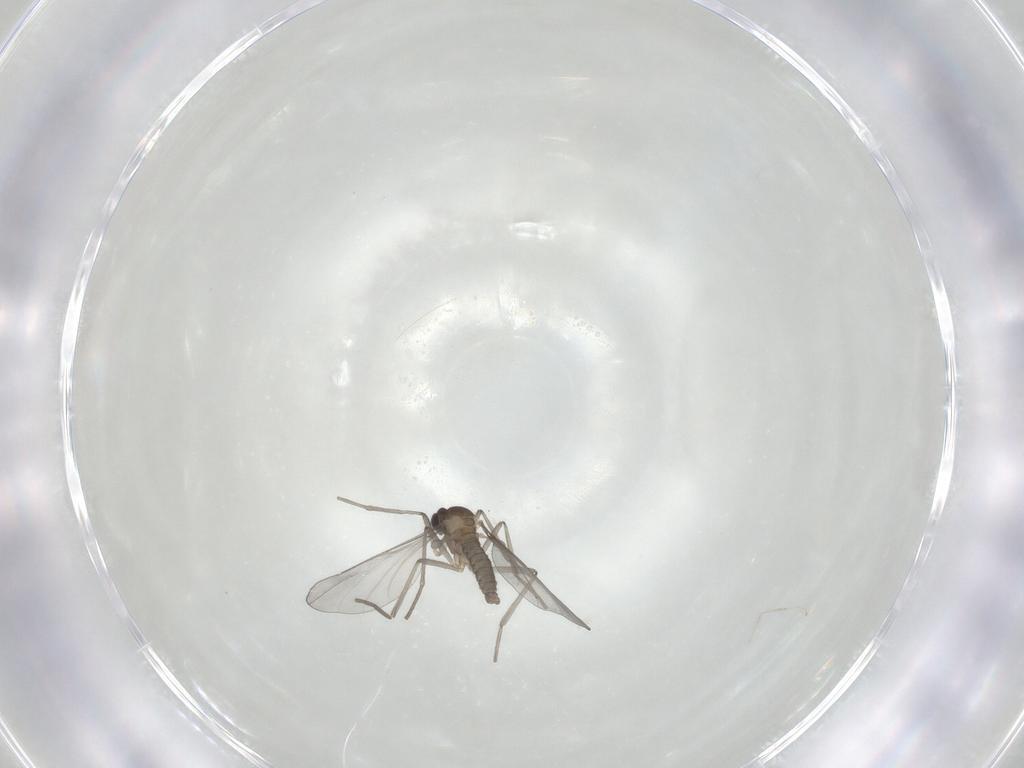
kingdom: Animalia
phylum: Arthropoda
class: Insecta
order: Diptera
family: Cecidomyiidae
